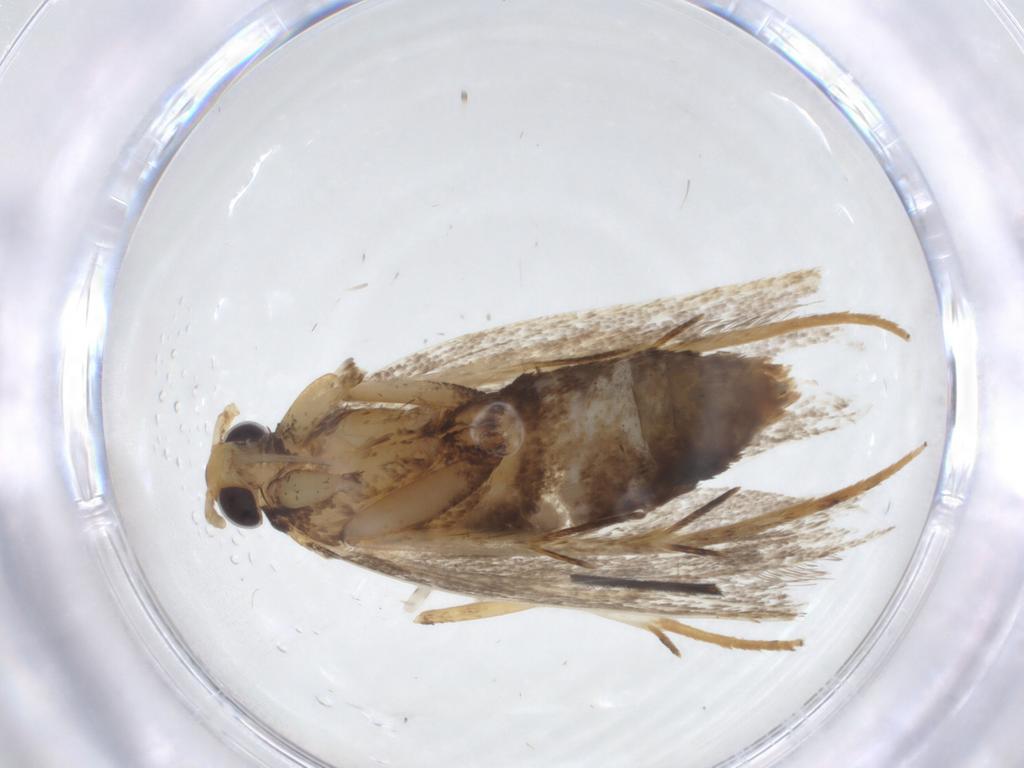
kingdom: Animalia
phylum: Arthropoda
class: Insecta
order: Lepidoptera
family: Lecithoceridae
